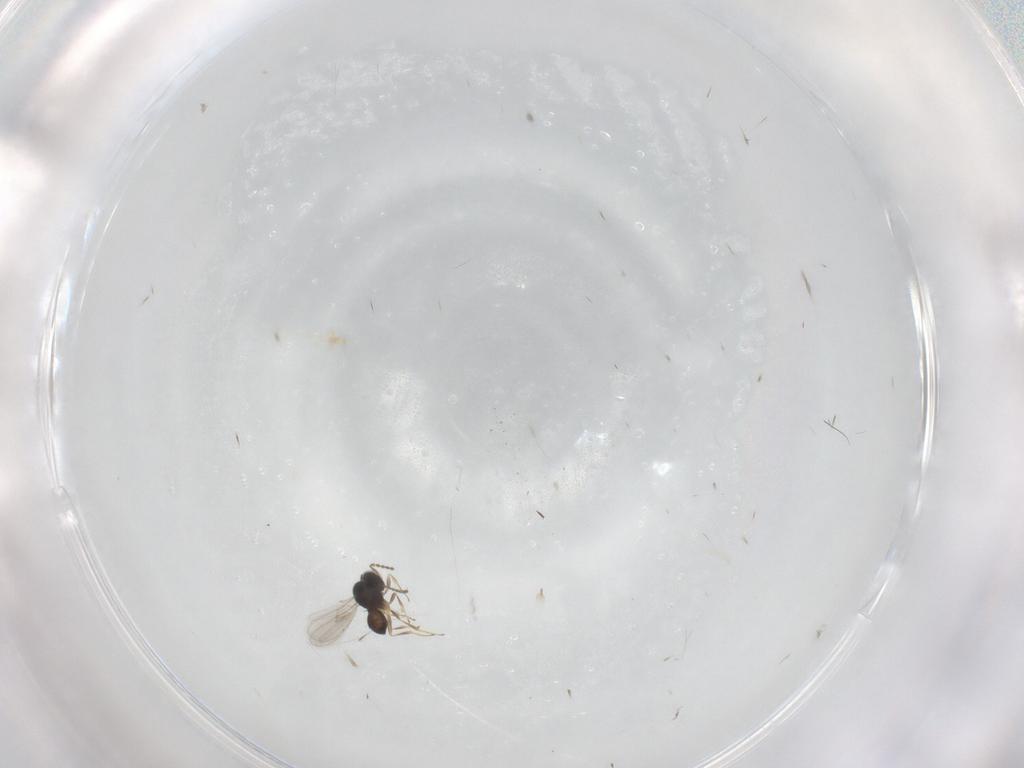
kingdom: Animalia
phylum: Arthropoda
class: Insecta
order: Hymenoptera
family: Scelionidae
